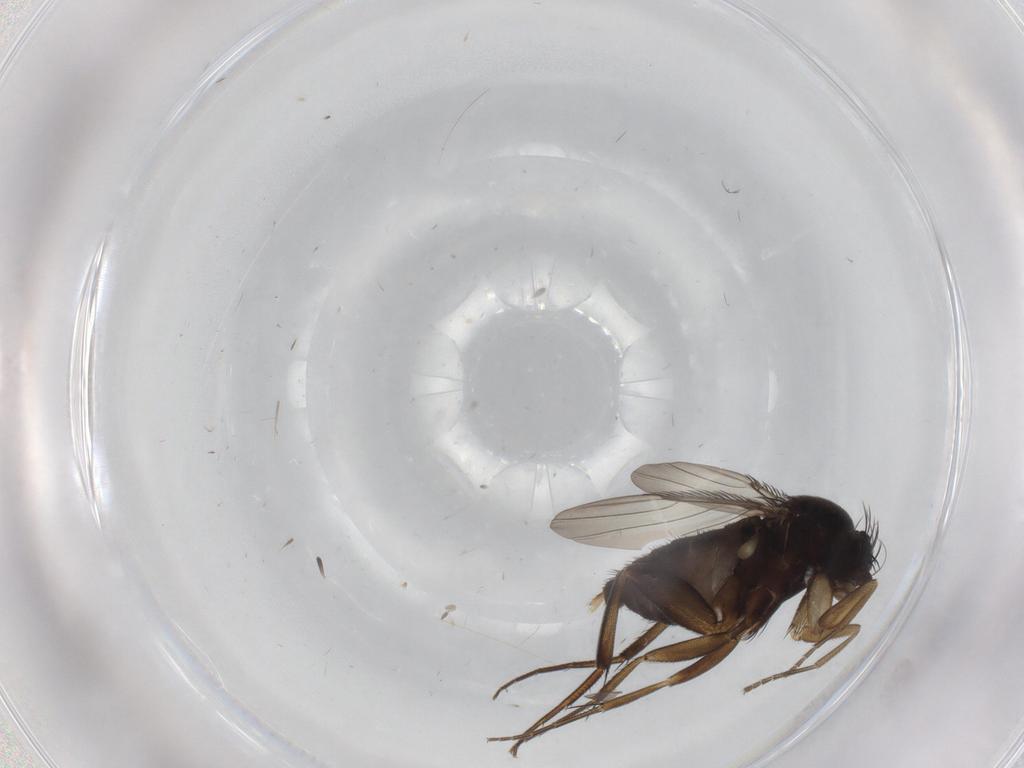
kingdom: Animalia
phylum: Arthropoda
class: Insecta
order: Diptera
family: Phoridae
